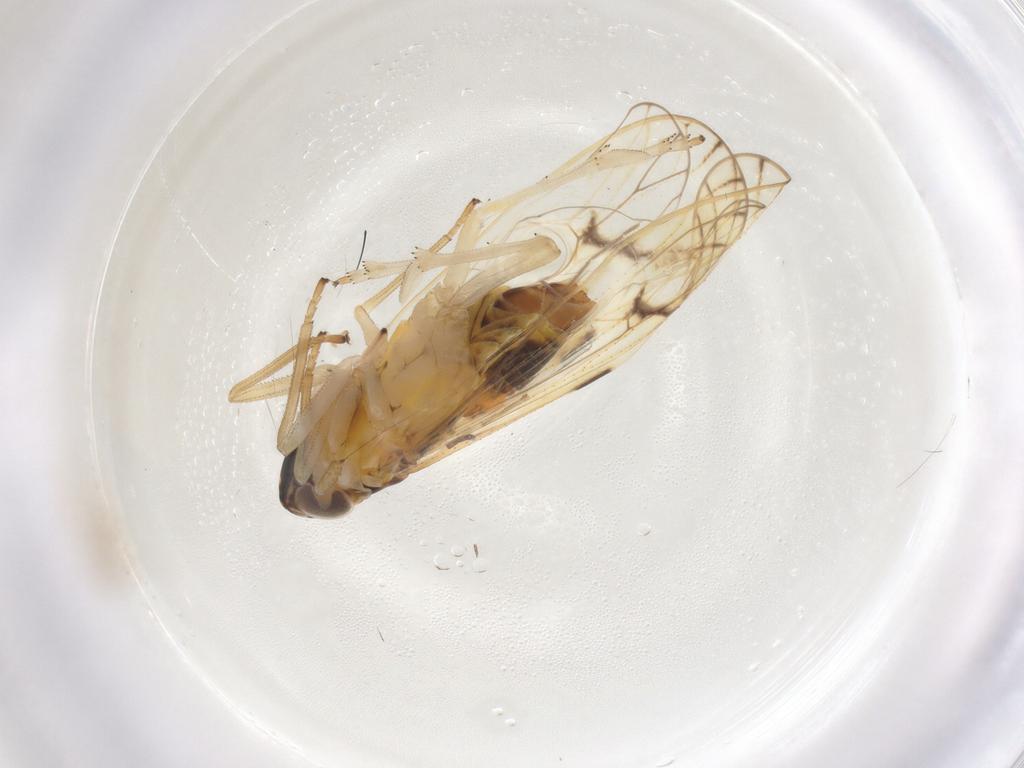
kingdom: Animalia
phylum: Arthropoda
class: Insecta
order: Hemiptera
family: Delphacidae
